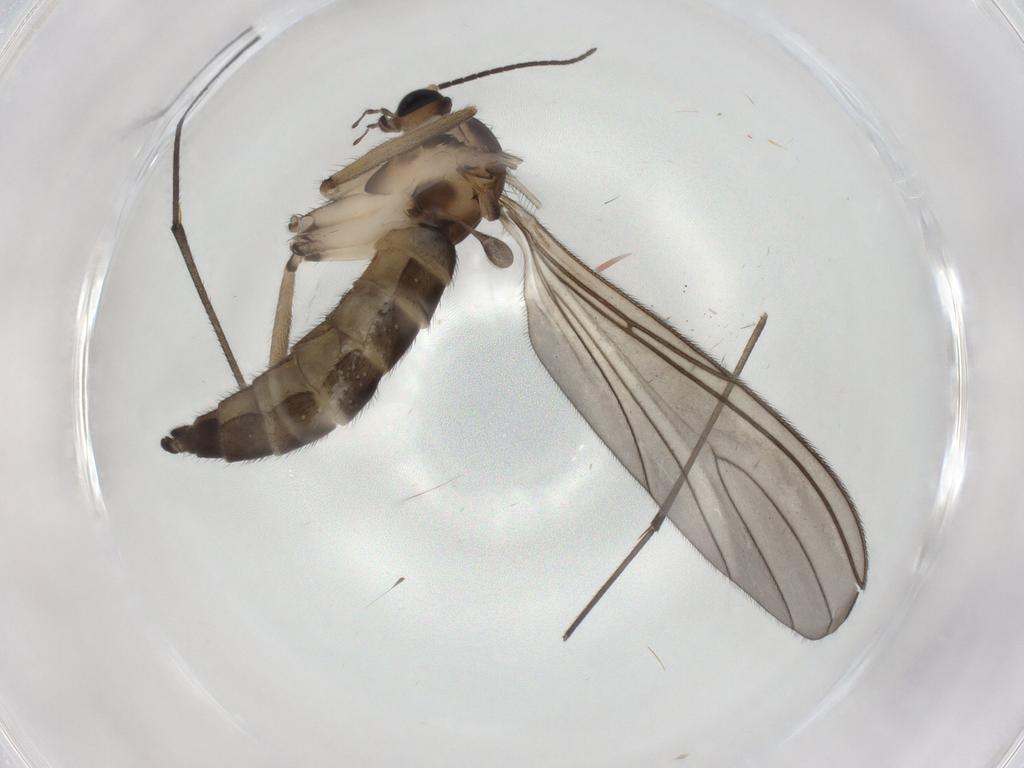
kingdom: Animalia
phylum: Arthropoda
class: Insecta
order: Diptera
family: Sciaridae
